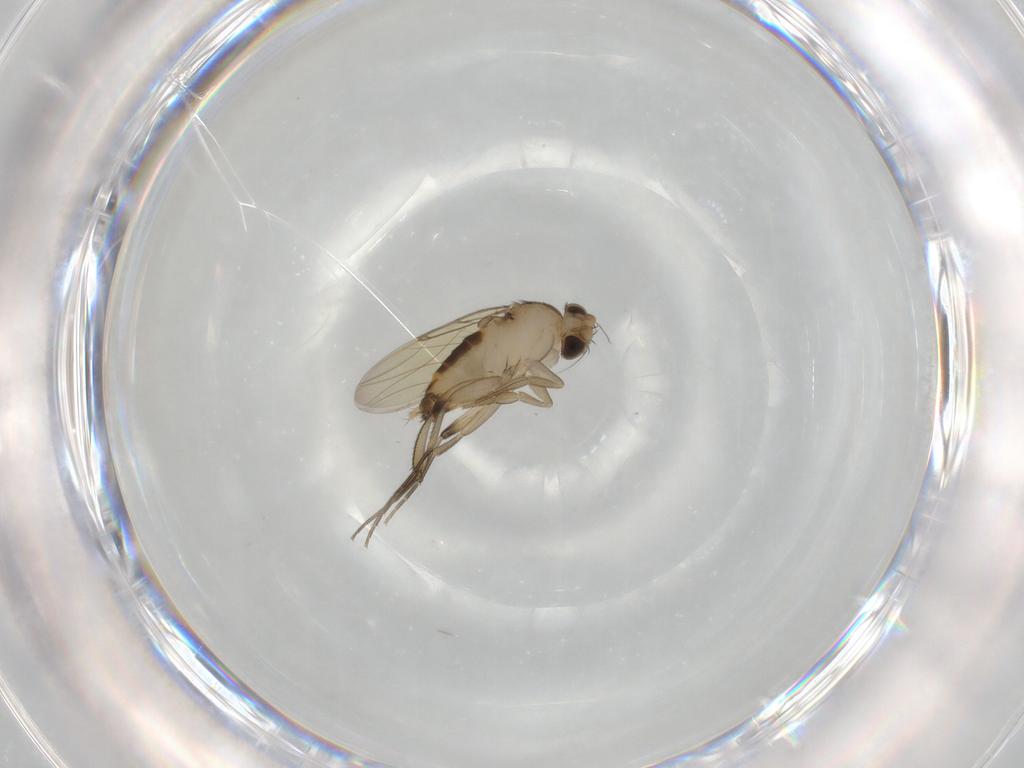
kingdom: Animalia
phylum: Arthropoda
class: Insecta
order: Diptera
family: Phoridae
